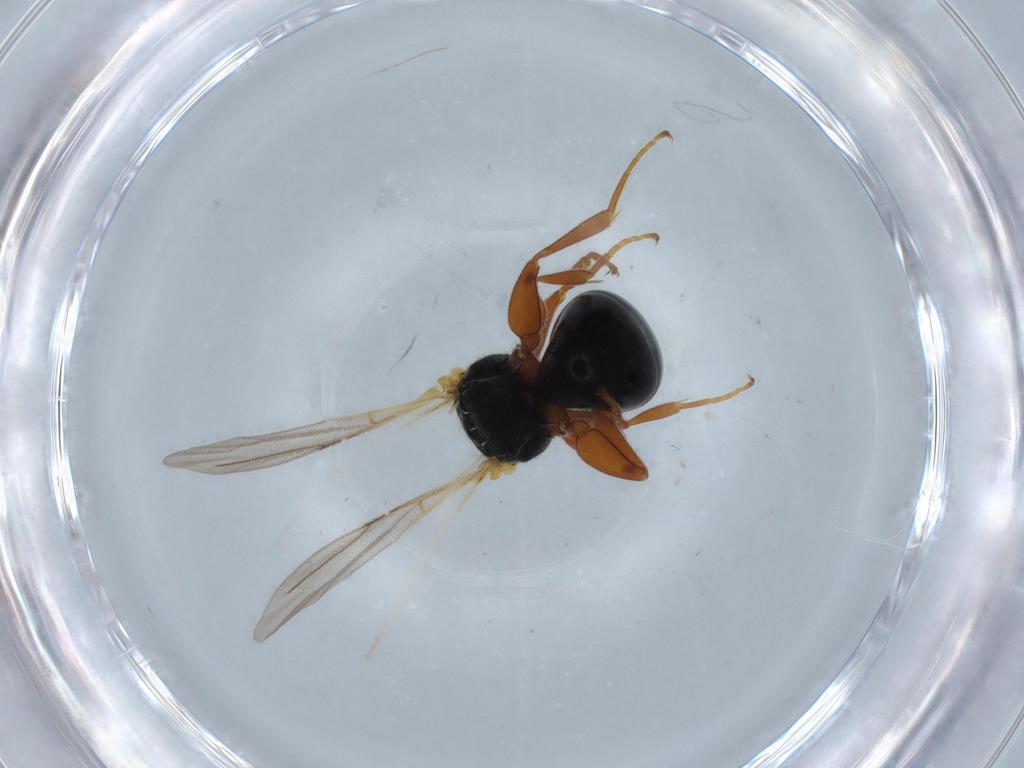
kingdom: Animalia
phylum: Arthropoda
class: Insecta
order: Hymenoptera
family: Bethylidae
